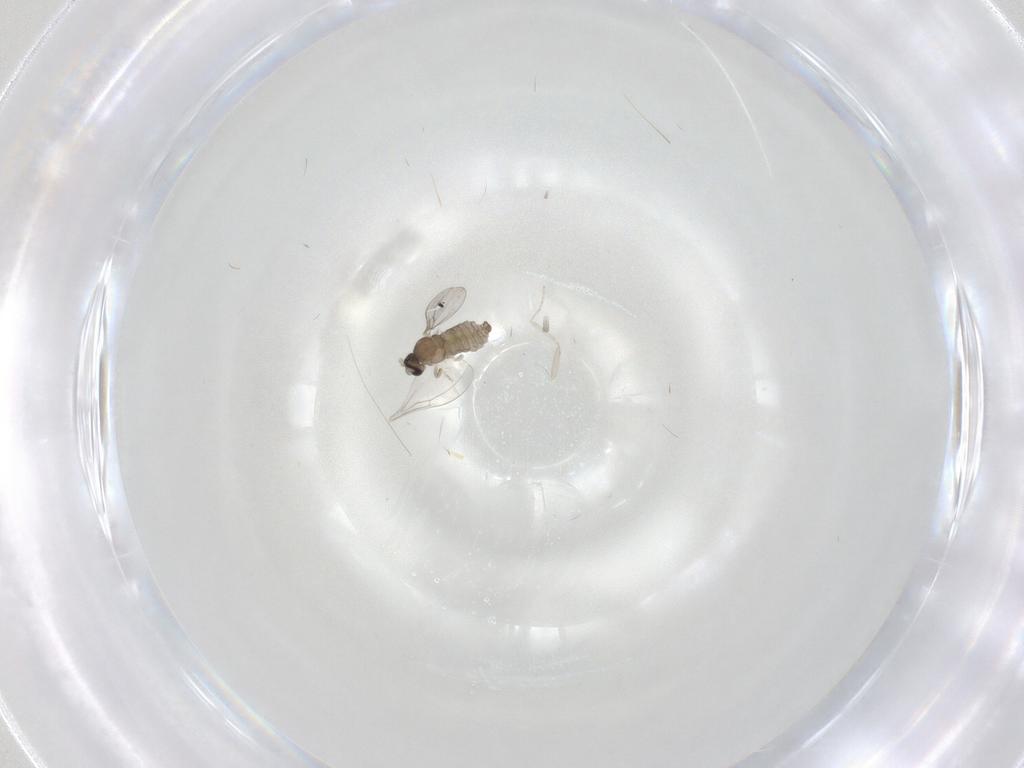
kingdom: Animalia
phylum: Arthropoda
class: Insecta
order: Diptera
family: Cecidomyiidae
